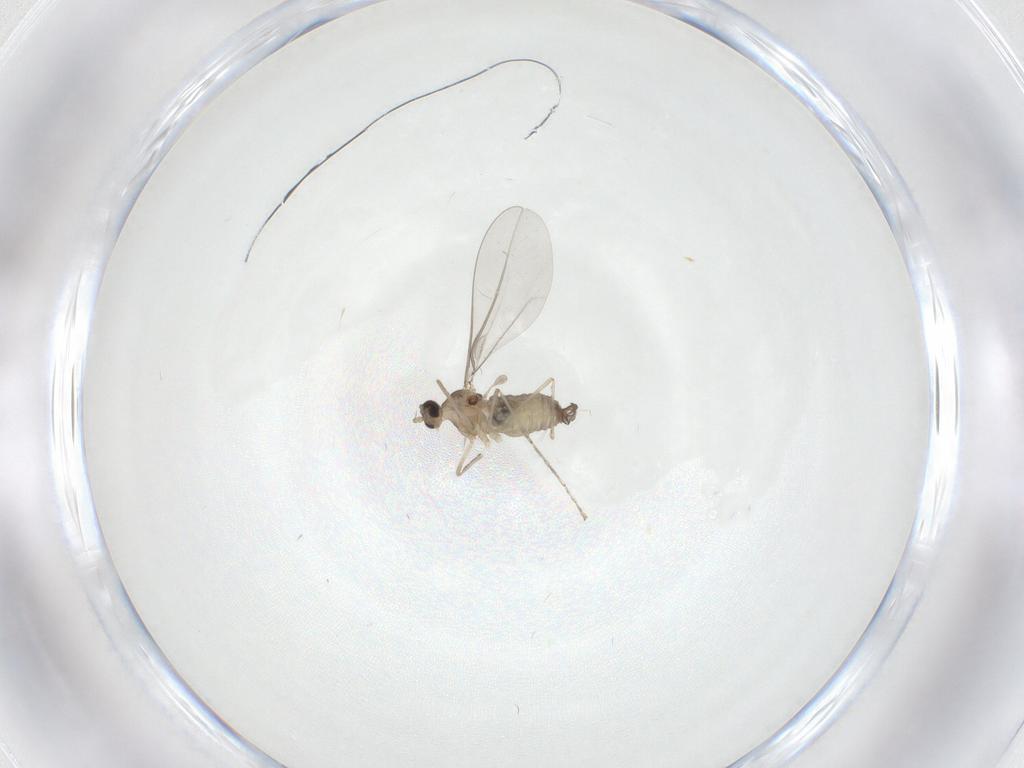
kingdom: Animalia
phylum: Arthropoda
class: Insecta
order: Diptera
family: Cecidomyiidae
